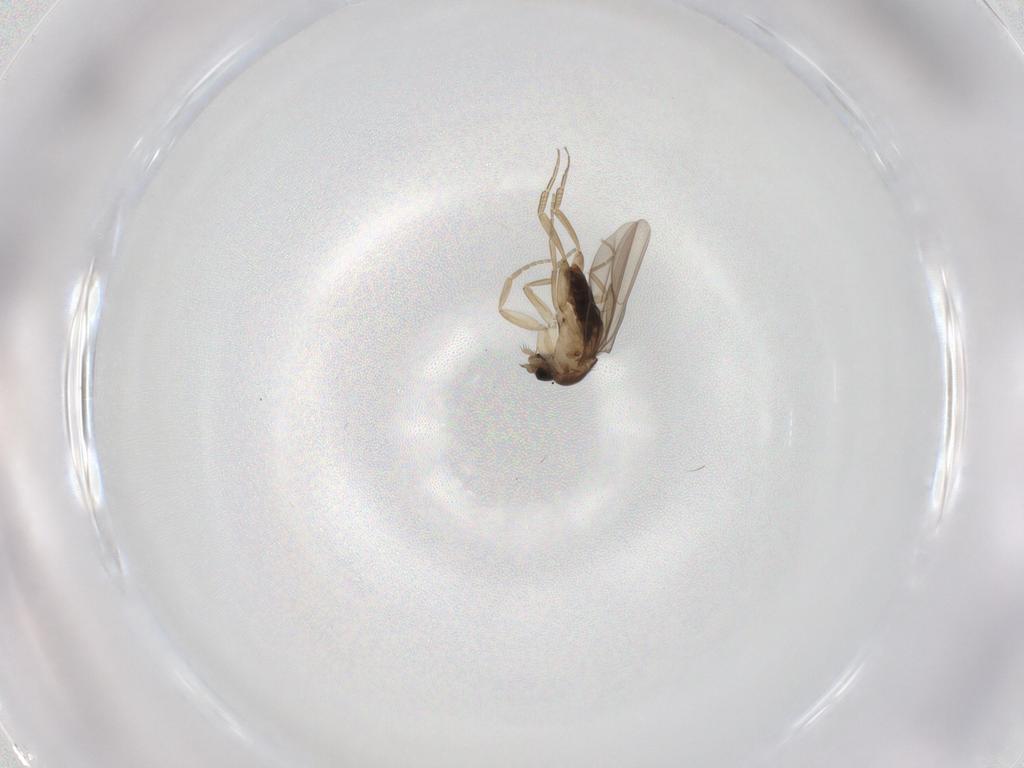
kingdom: Animalia
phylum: Arthropoda
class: Insecta
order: Diptera
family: Phoridae
